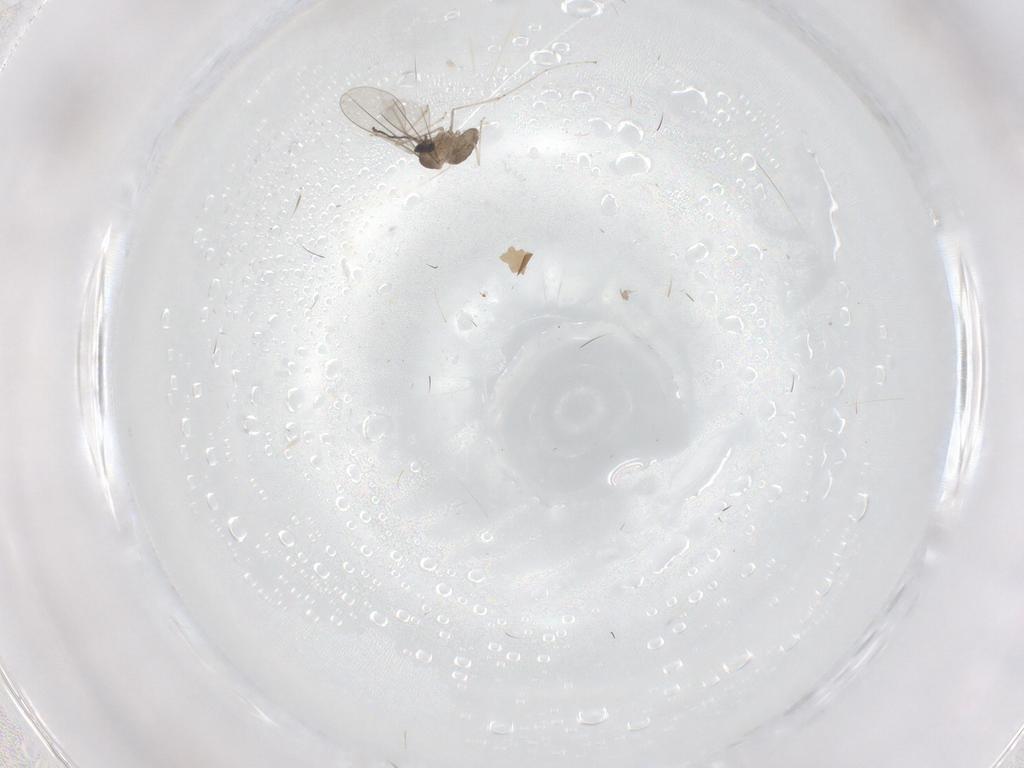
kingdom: Animalia
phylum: Arthropoda
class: Insecta
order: Diptera
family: Cecidomyiidae
